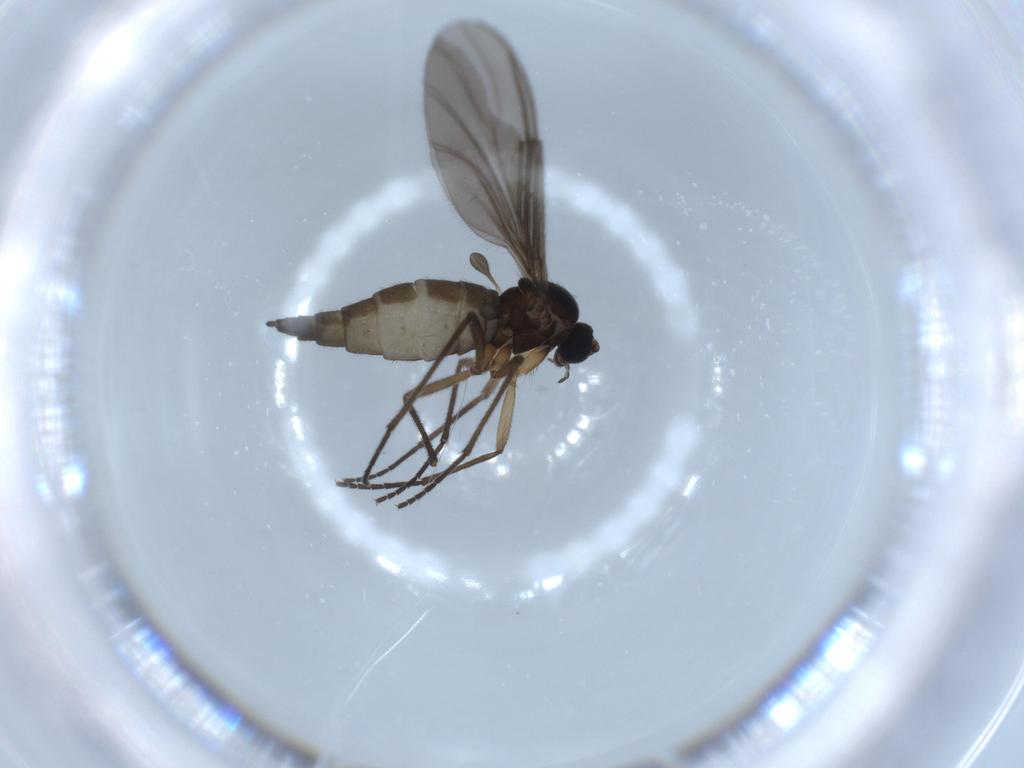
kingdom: Animalia
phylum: Arthropoda
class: Insecta
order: Diptera
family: Sciaridae
